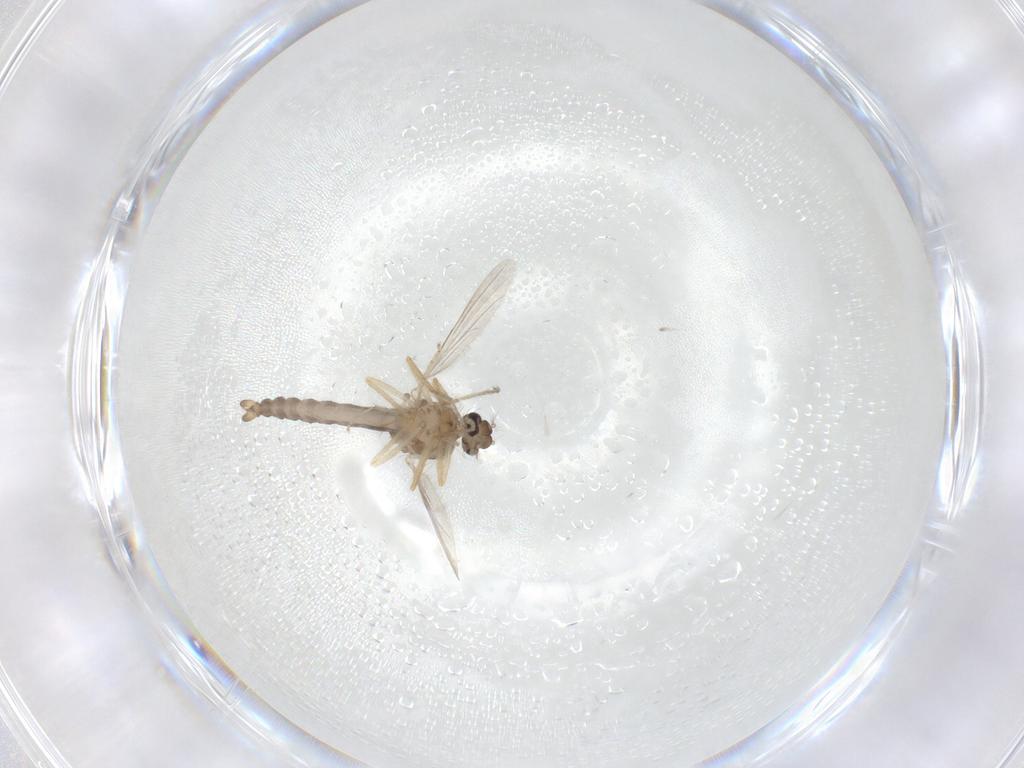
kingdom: Animalia
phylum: Arthropoda
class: Insecta
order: Diptera
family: Ceratopogonidae
